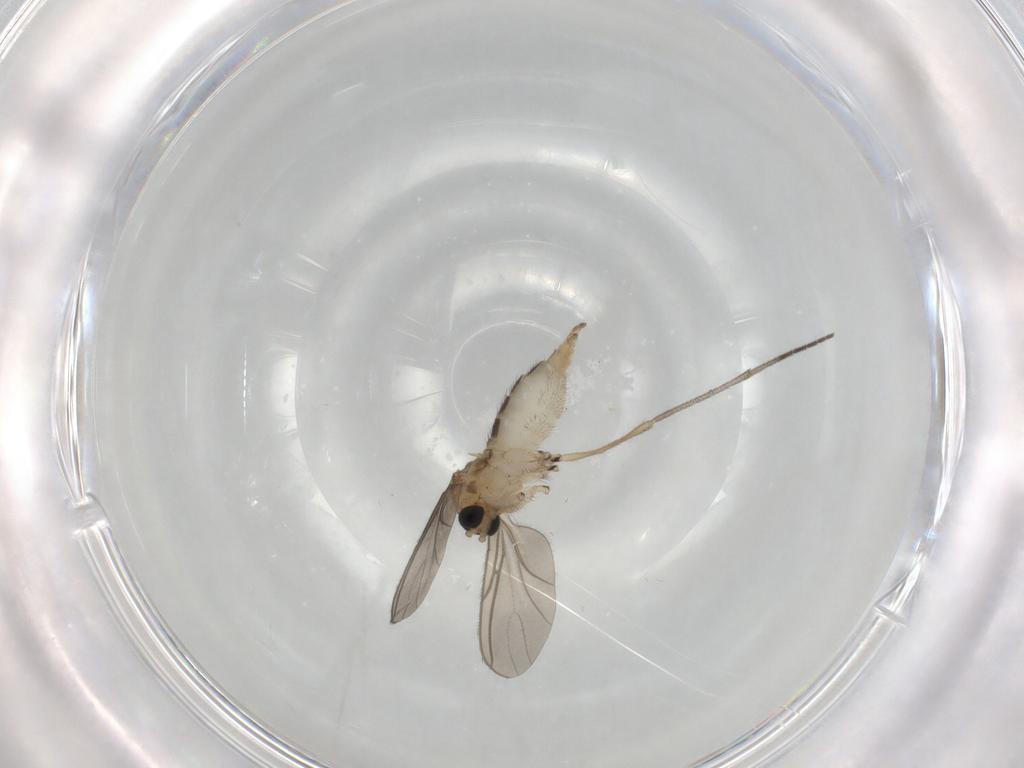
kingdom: Animalia
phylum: Arthropoda
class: Insecta
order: Diptera
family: Sciaridae
